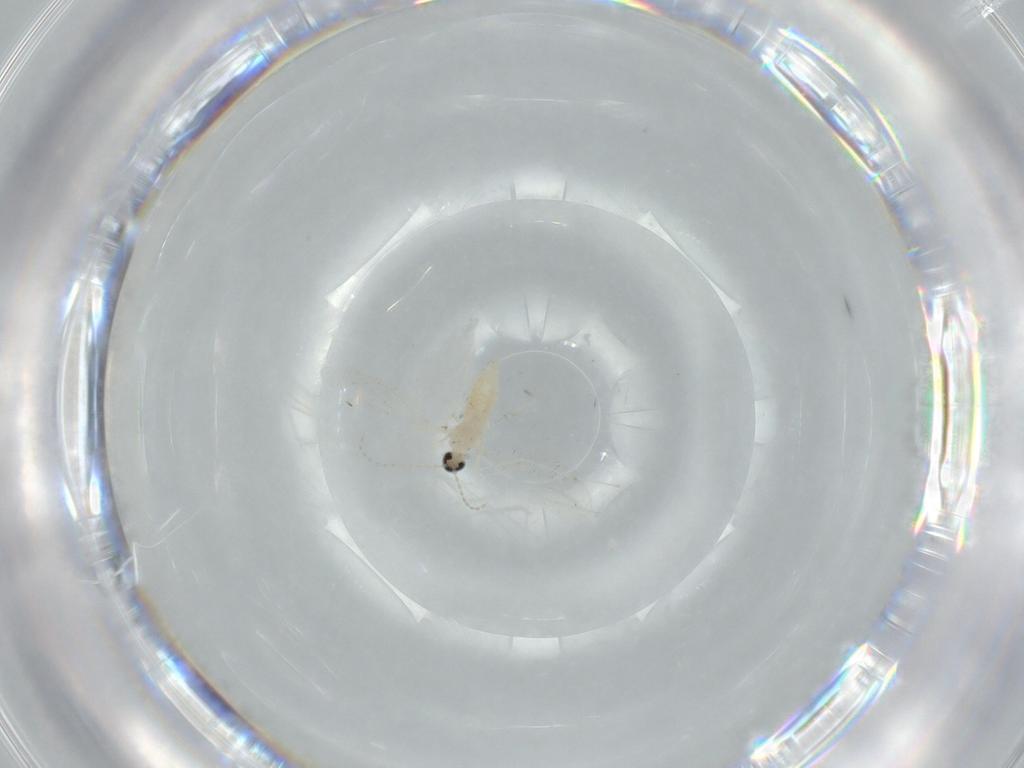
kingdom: Animalia
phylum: Arthropoda
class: Insecta
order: Diptera
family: Cecidomyiidae
